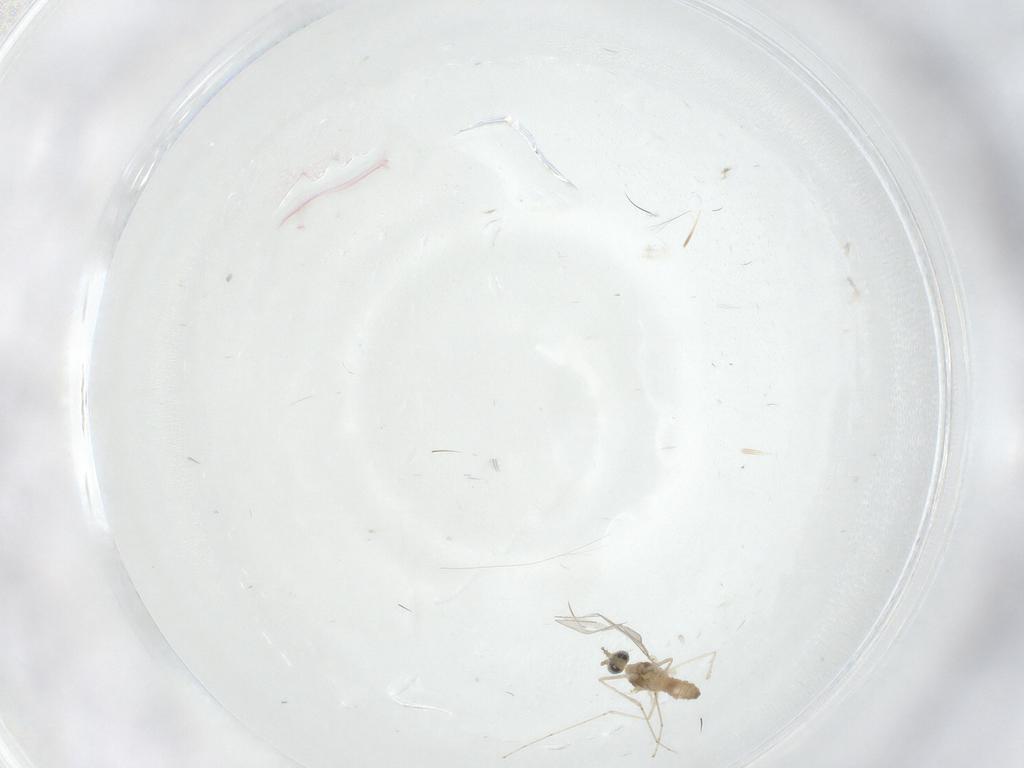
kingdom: Animalia
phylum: Arthropoda
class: Insecta
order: Diptera
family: Cecidomyiidae
